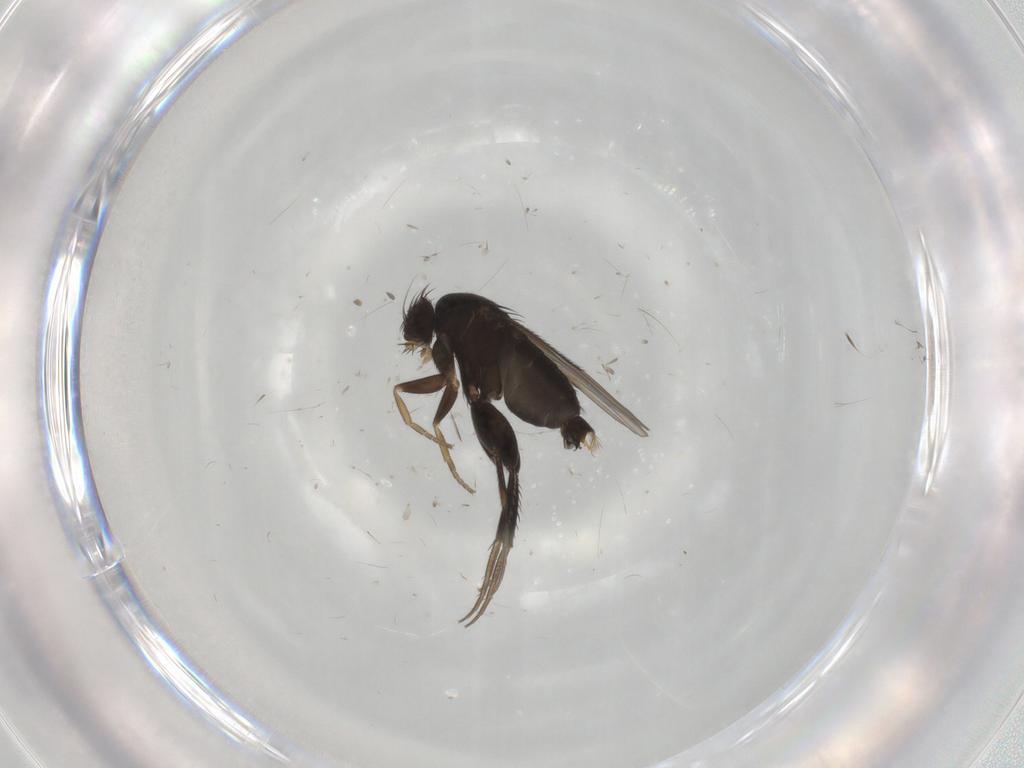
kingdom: Animalia
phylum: Arthropoda
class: Insecta
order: Diptera
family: Phoridae
